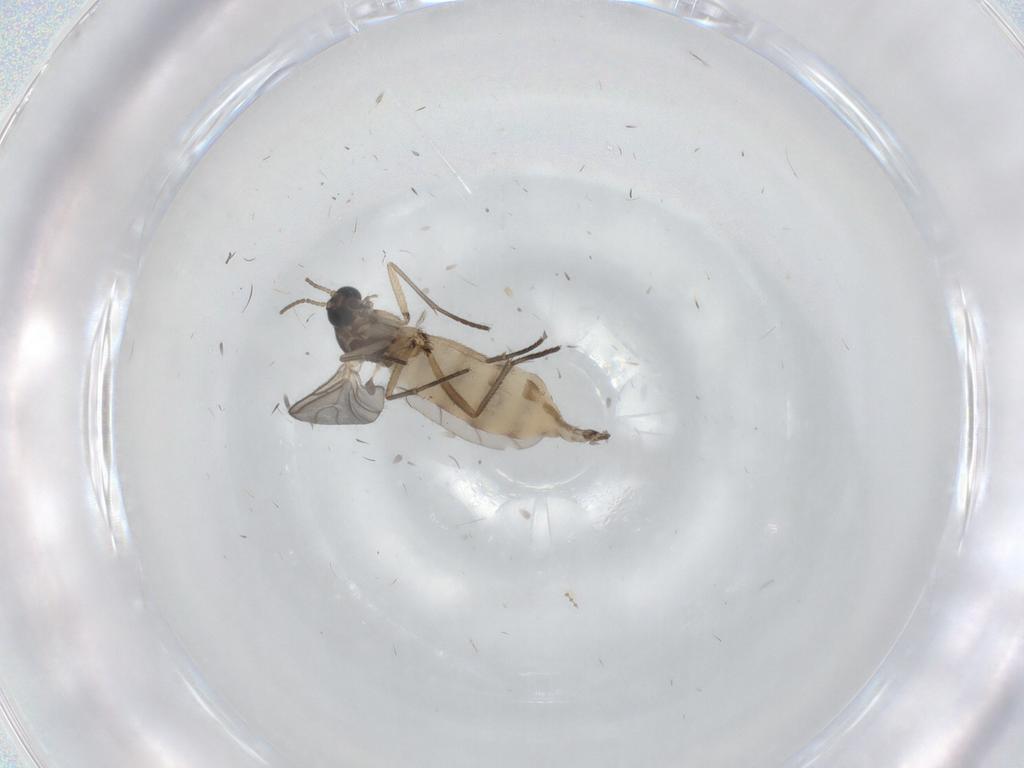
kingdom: Animalia
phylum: Arthropoda
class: Insecta
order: Diptera
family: Sciaridae
